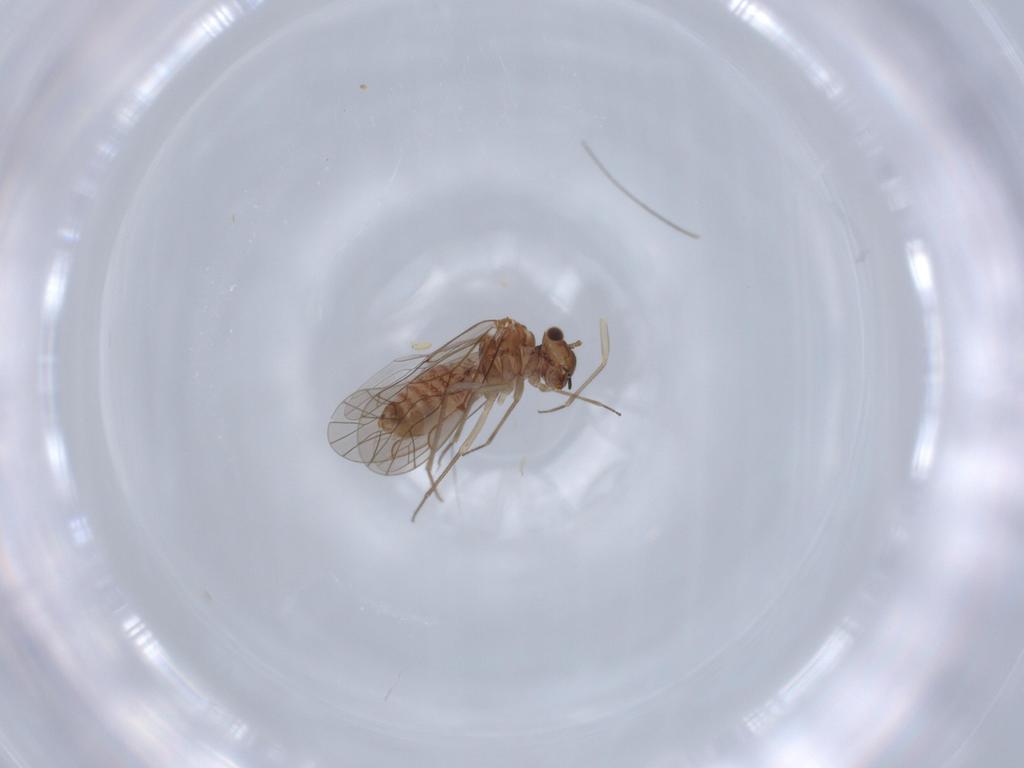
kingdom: Animalia
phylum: Arthropoda
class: Insecta
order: Psocodea
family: Lachesillidae
